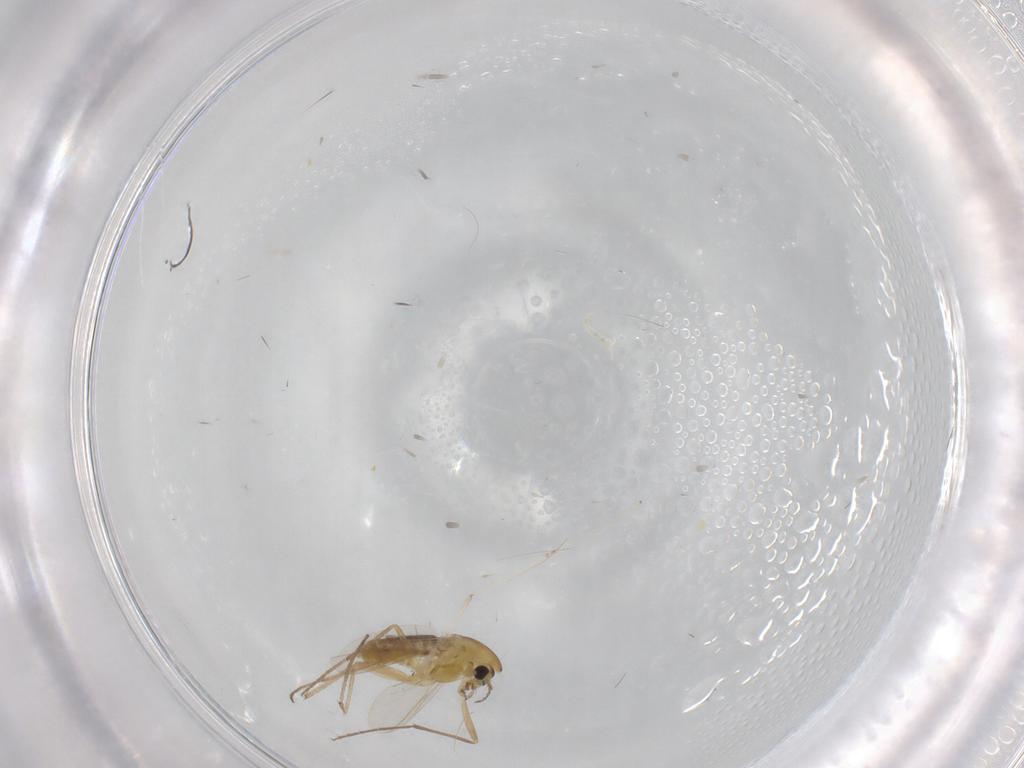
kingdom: Animalia
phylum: Arthropoda
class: Insecta
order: Diptera
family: Chironomidae
